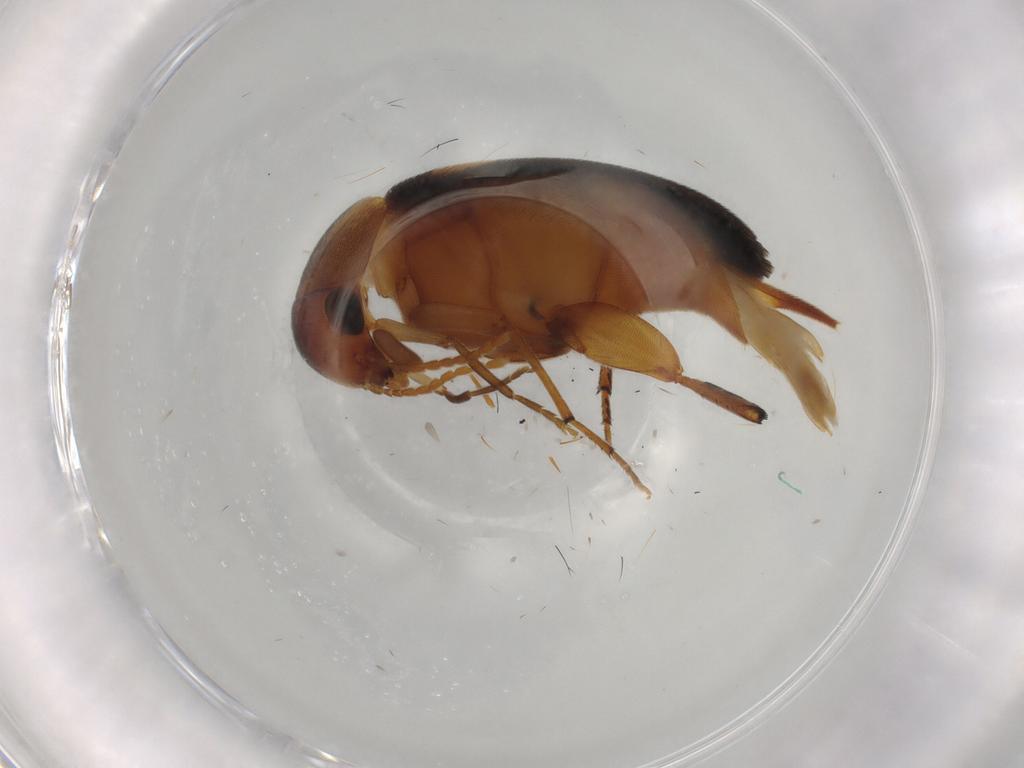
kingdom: Animalia
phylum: Arthropoda
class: Insecta
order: Coleoptera
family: Mordellidae
